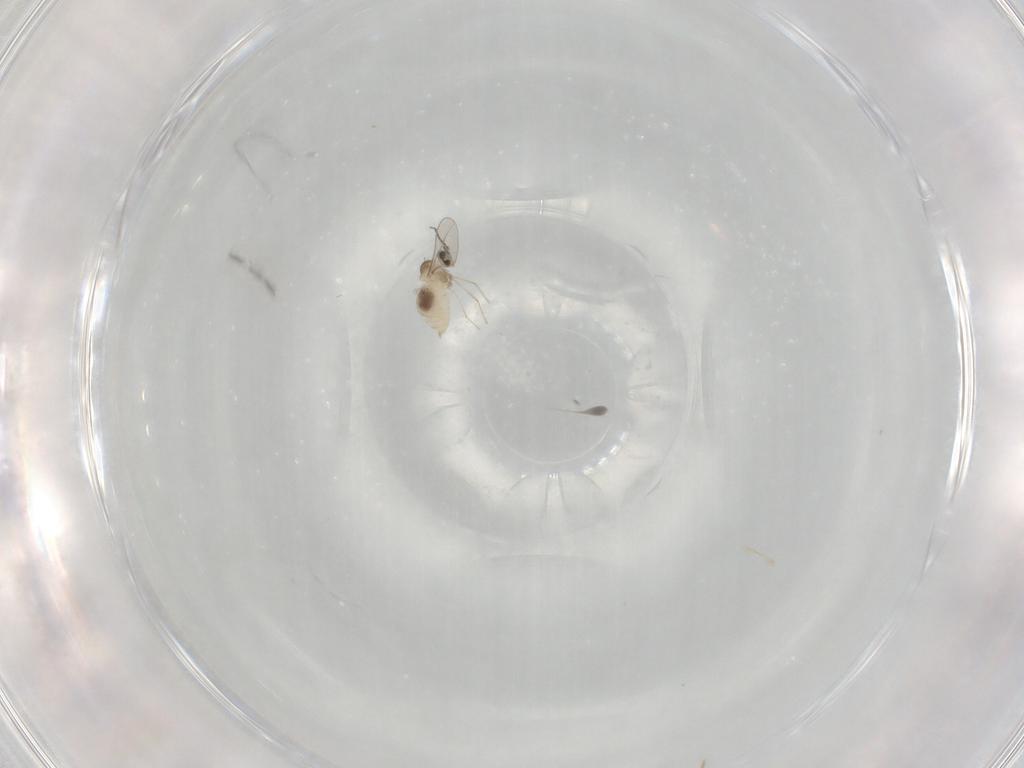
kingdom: Animalia
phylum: Arthropoda
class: Insecta
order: Diptera
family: Cecidomyiidae
